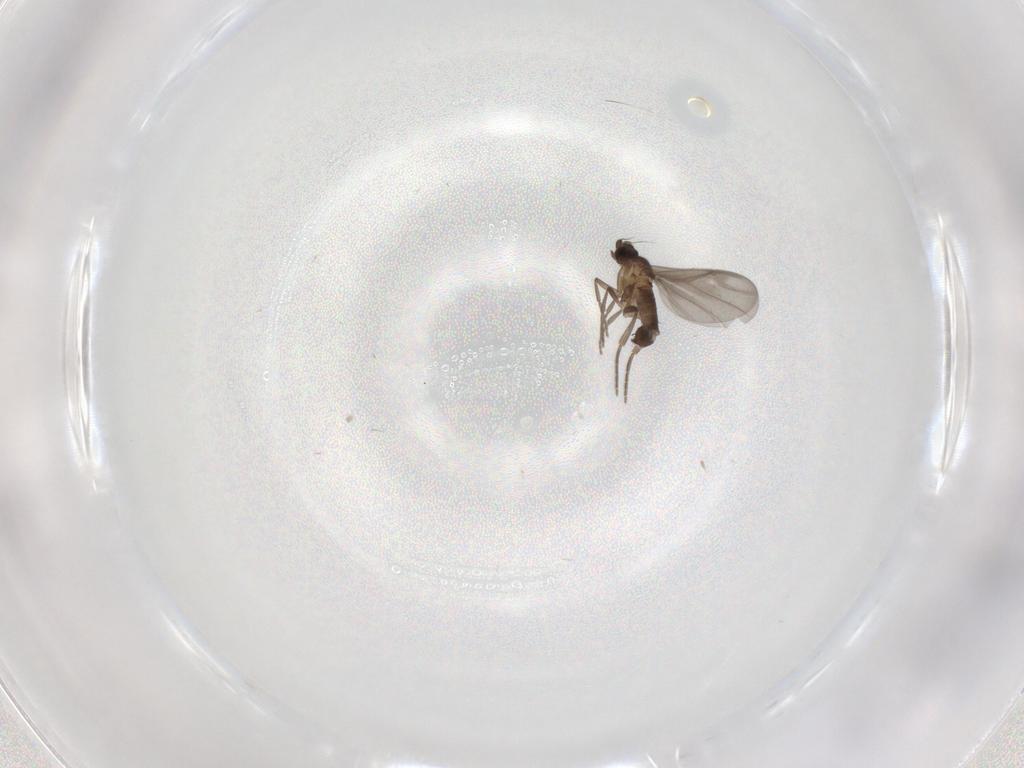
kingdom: Animalia
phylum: Arthropoda
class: Insecta
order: Diptera
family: Phoridae
